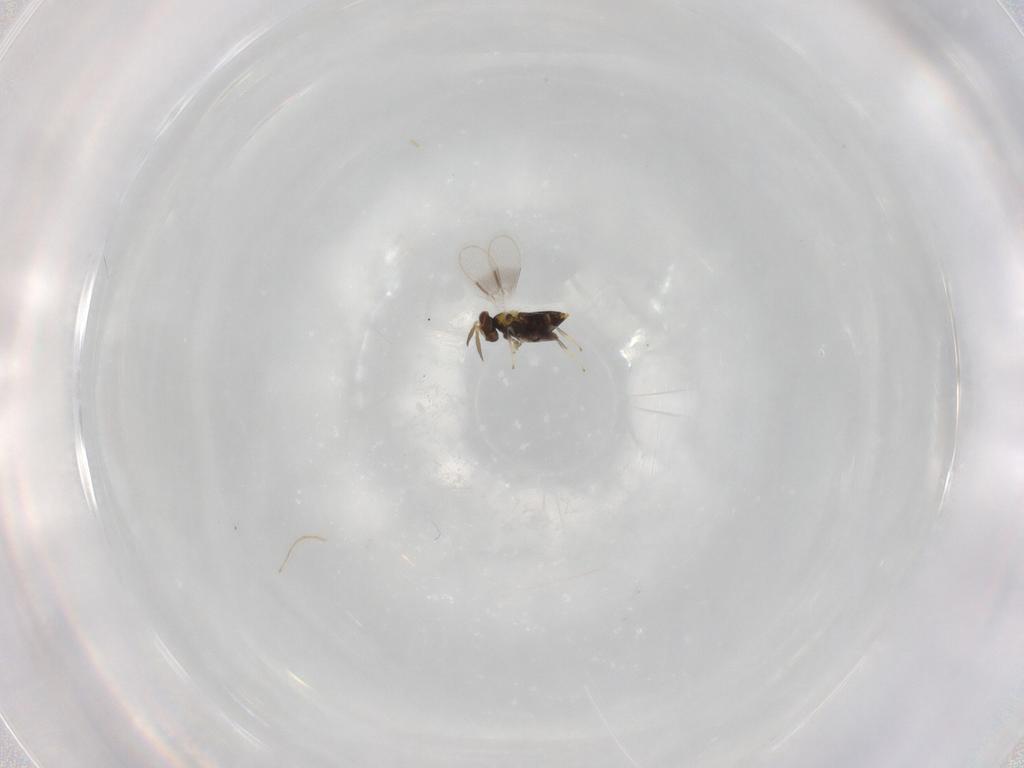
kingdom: Animalia
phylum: Arthropoda
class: Insecta
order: Hymenoptera
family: Aphelinidae
